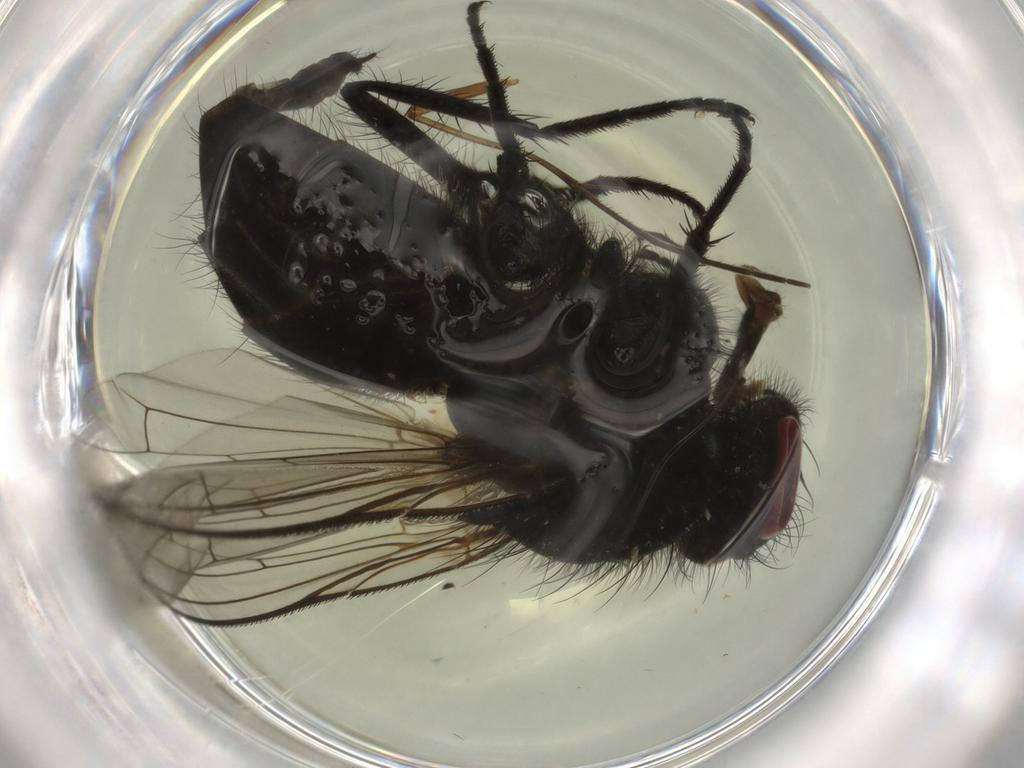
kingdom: Animalia
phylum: Arthropoda
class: Insecta
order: Diptera
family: Muscidae
